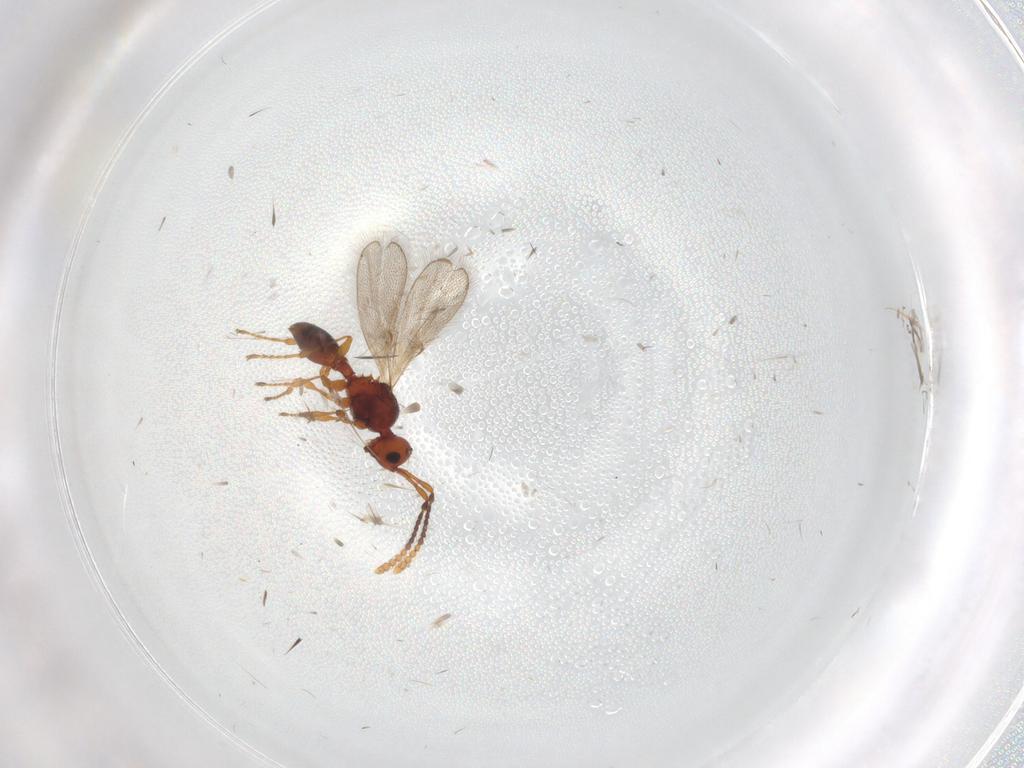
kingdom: Animalia
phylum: Arthropoda
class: Insecta
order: Hymenoptera
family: Diapriidae
